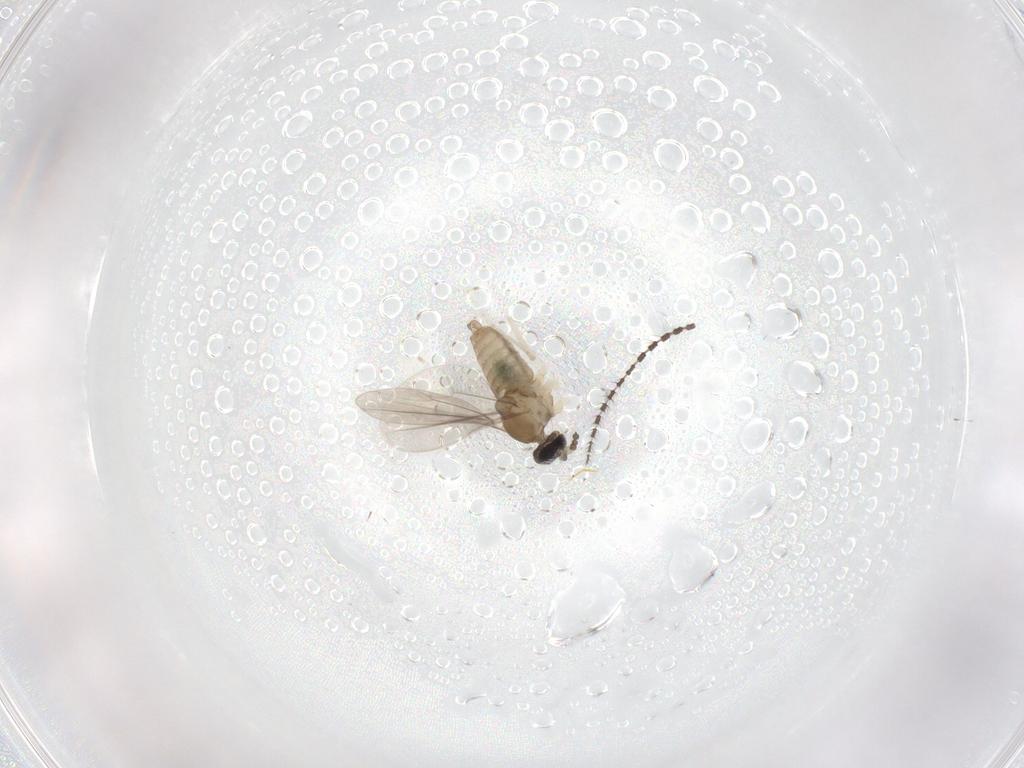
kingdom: Animalia
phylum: Arthropoda
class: Insecta
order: Diptera
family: Cecidomyiidae
